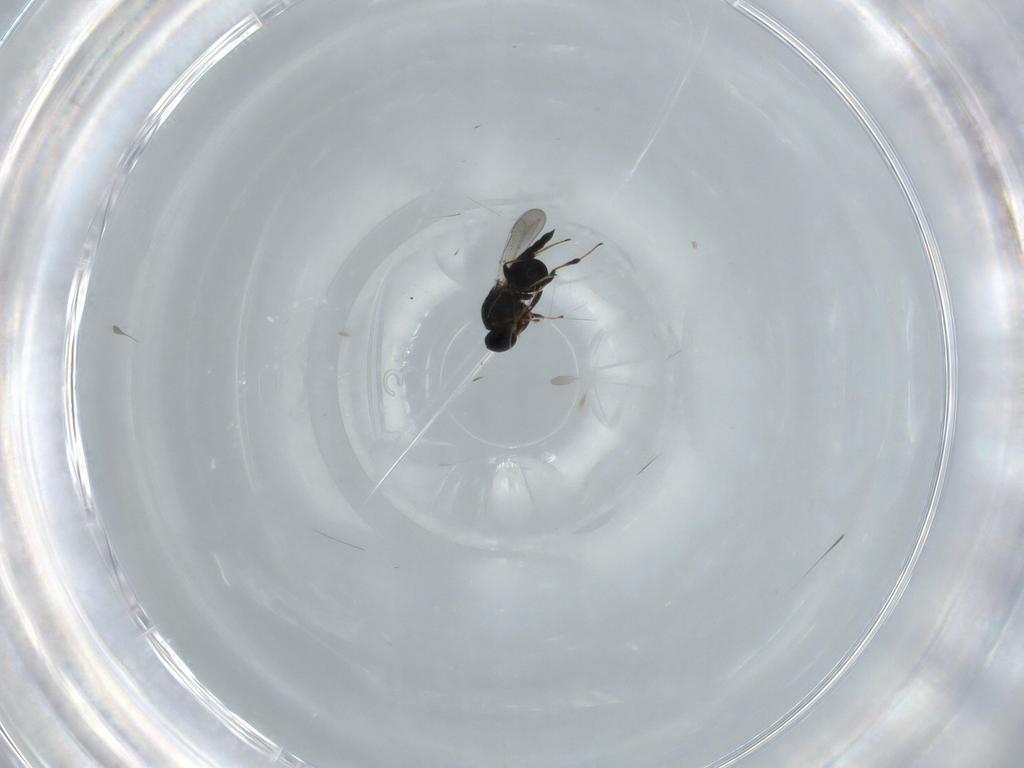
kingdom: Animalia
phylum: Arthropoda
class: Insecta
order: Hymenoptera
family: Platygastridae
